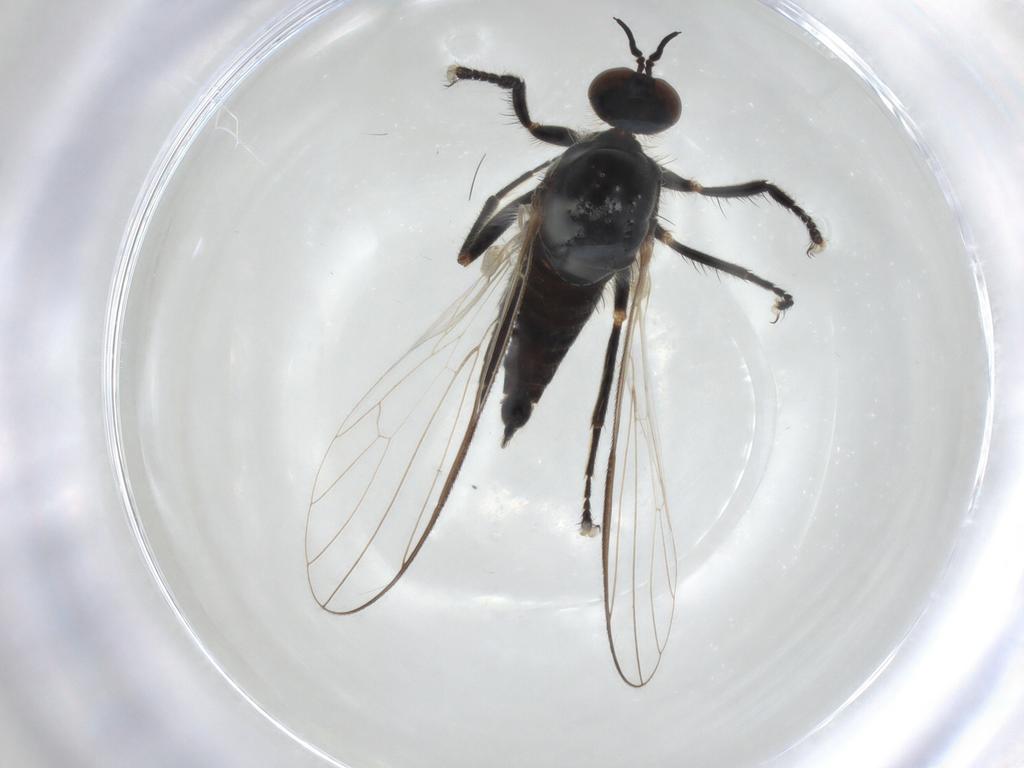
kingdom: Animalia
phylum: Arthropoda
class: Insecta
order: Diptera
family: Empididae
